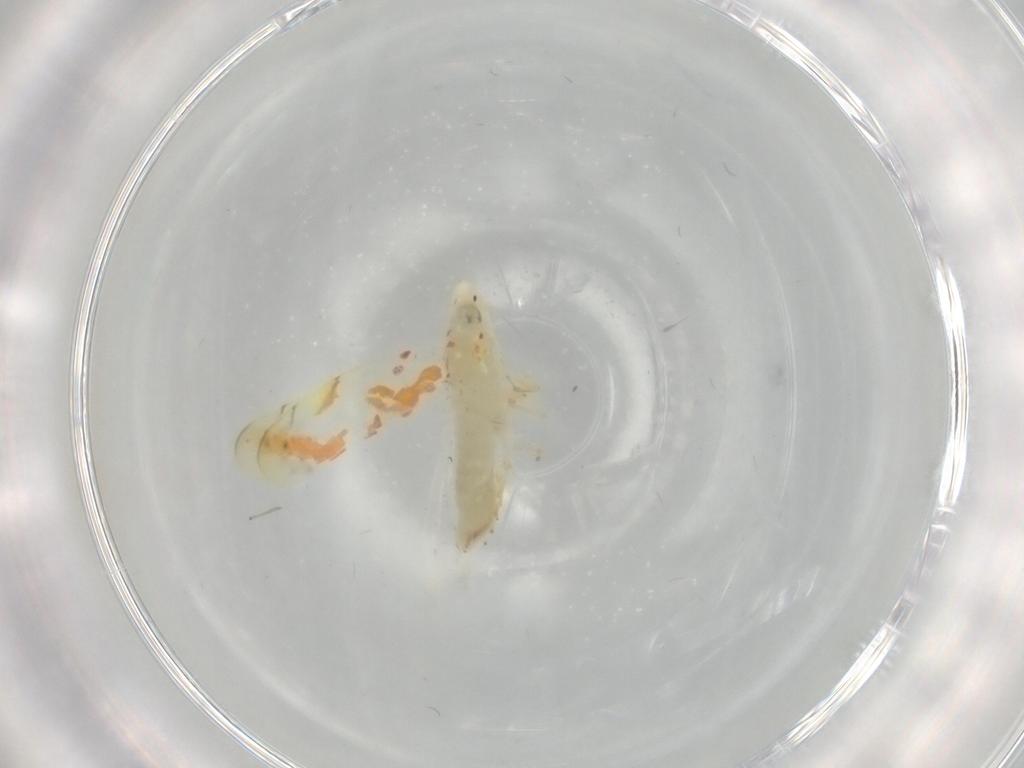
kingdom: Animalia
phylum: Arthropoda
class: Insecta
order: Hemiptera
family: Cicadellidae
